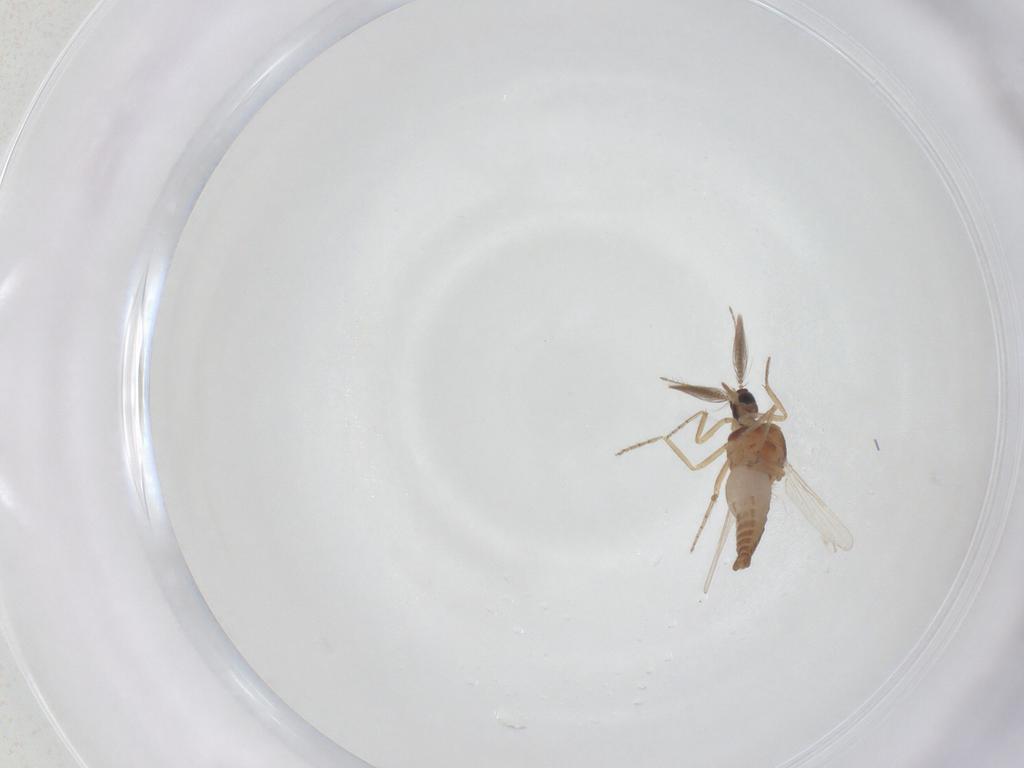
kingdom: Animalia
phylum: Arthropoda
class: Insecta
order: Diptera
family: Ceratopogonidae
